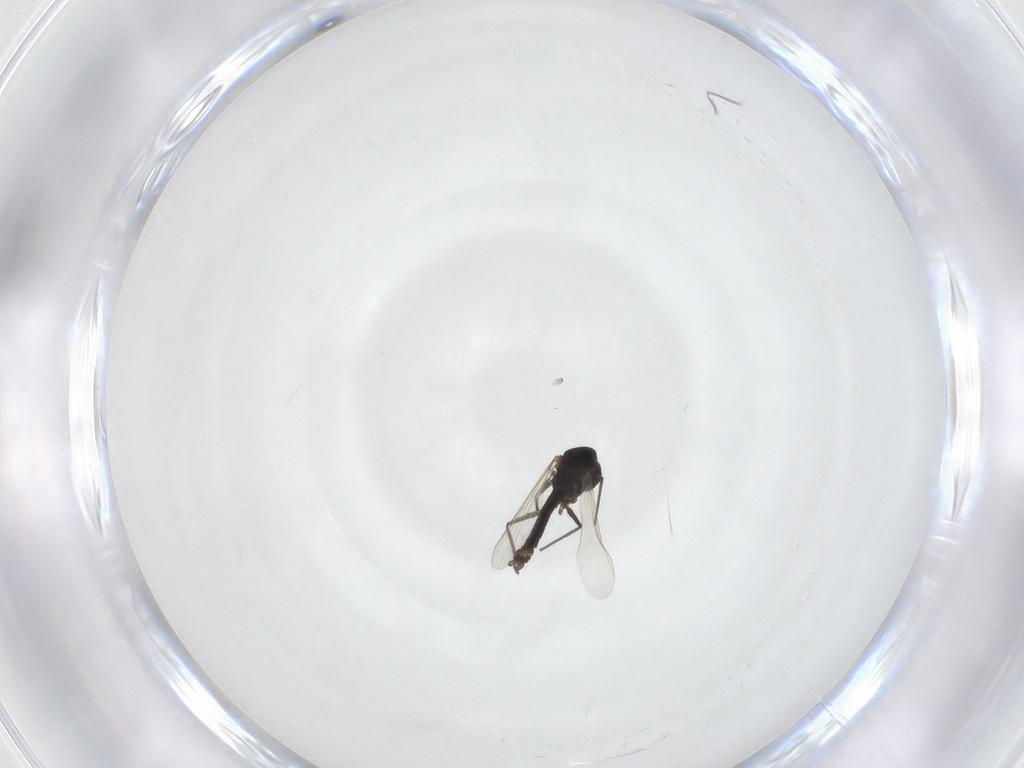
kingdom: Animalia
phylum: Arthropoda
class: Insecta
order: Diptera
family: Chironomidae
